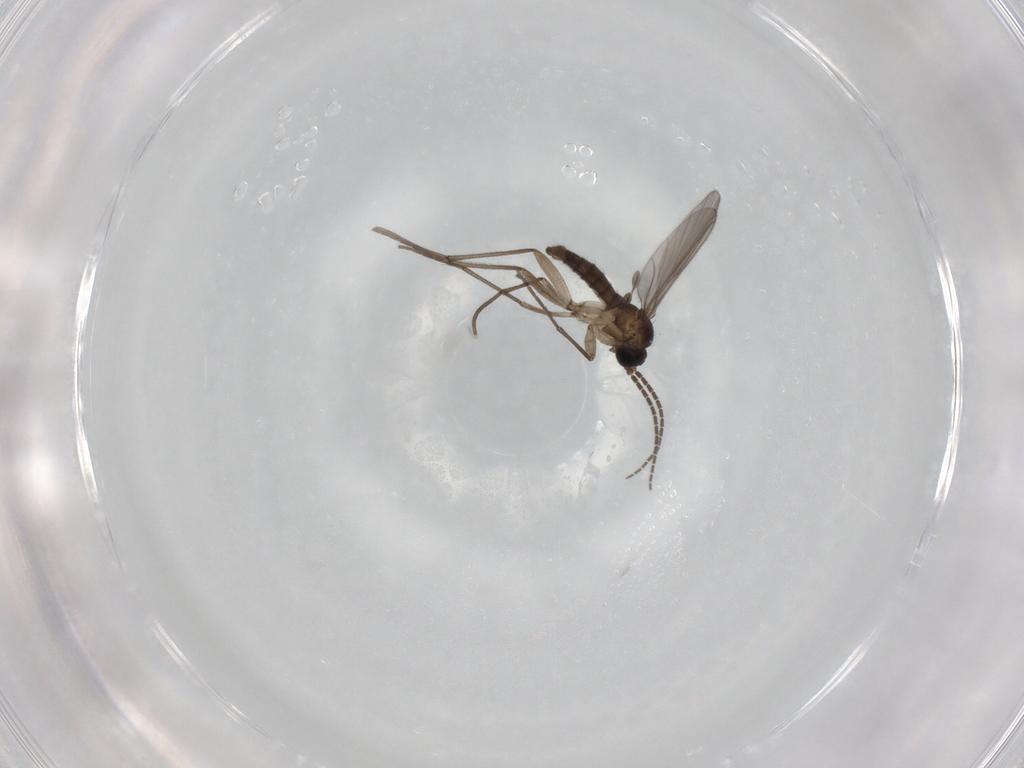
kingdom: Animalia
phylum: Arthropoda
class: Insecta
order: Diptera
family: Sciaridae
